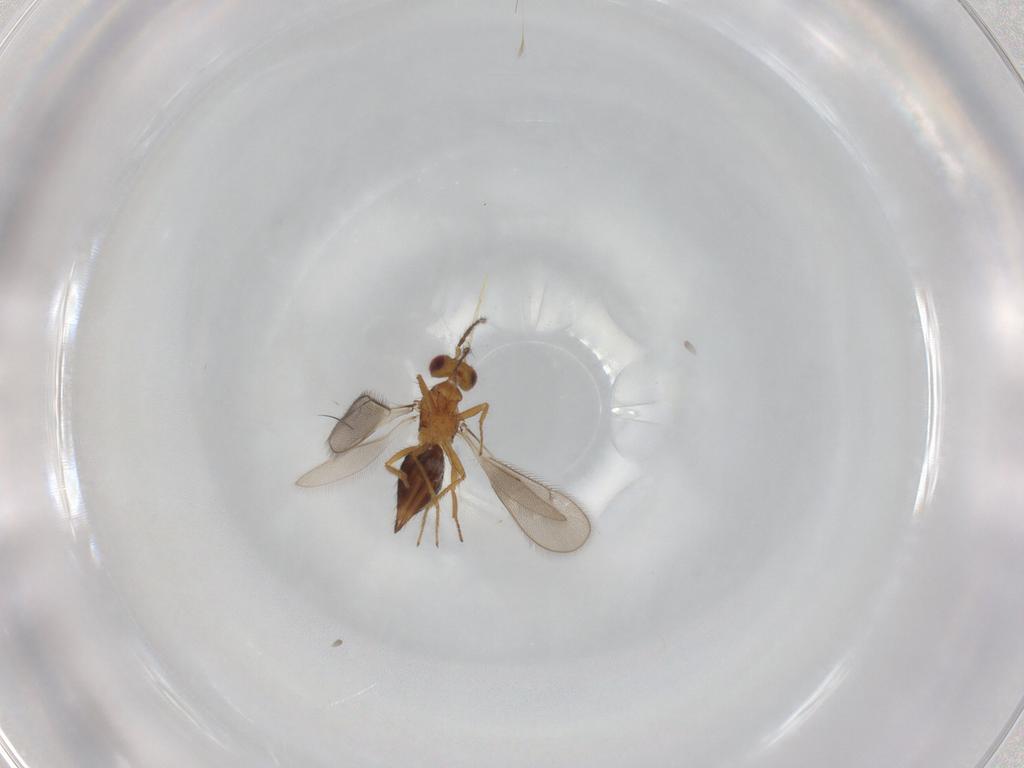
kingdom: Animalia
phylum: Arthropoda
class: Insecta
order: Hymenoptera
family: Eulophidae
